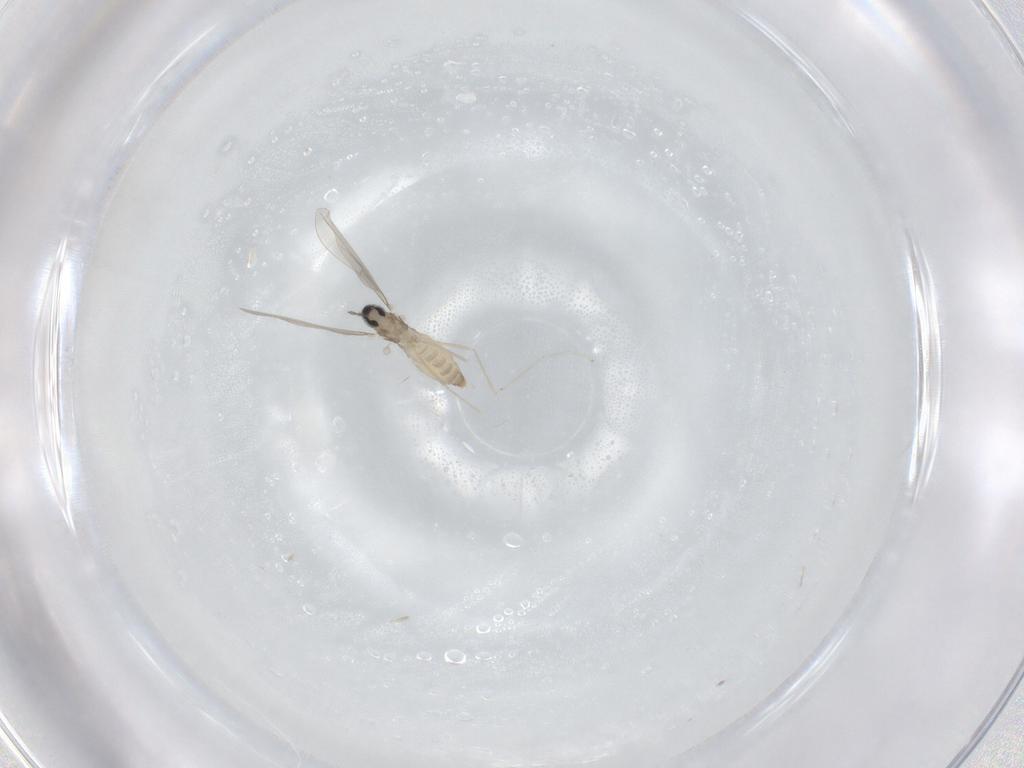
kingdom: Animalia
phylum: Arthropoda
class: Insecta
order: Diptera
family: Cecidomyiidae
